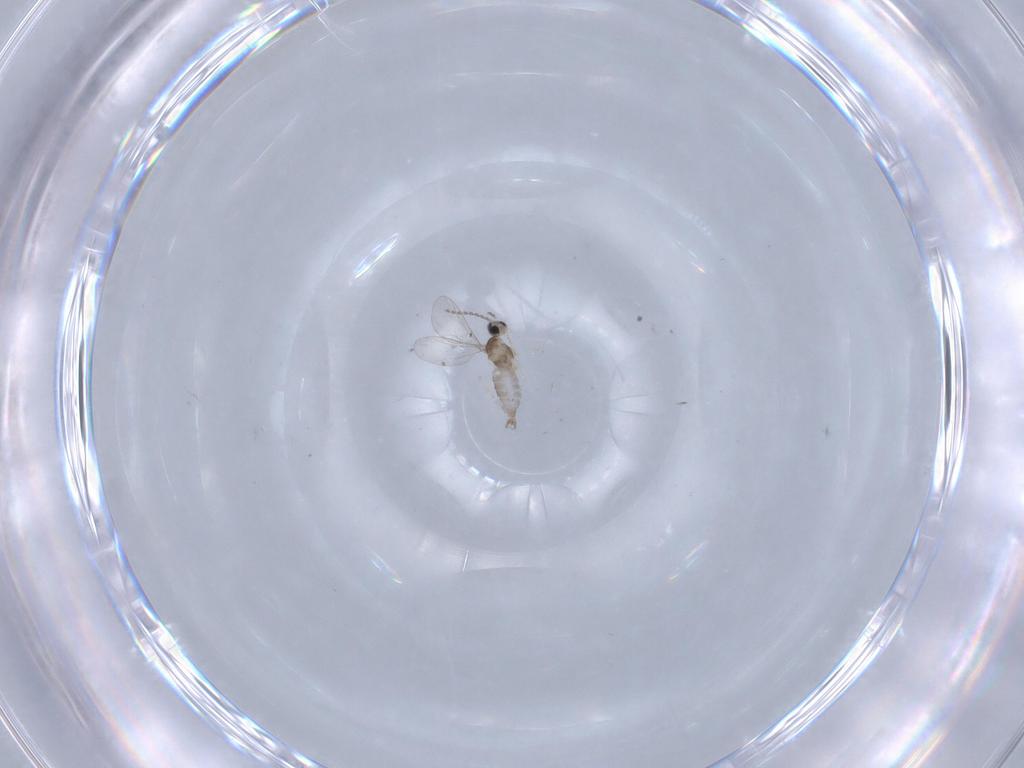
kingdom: Animalia
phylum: Arthropoda
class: Insecta
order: Diptera
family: Cecidomyiidae
